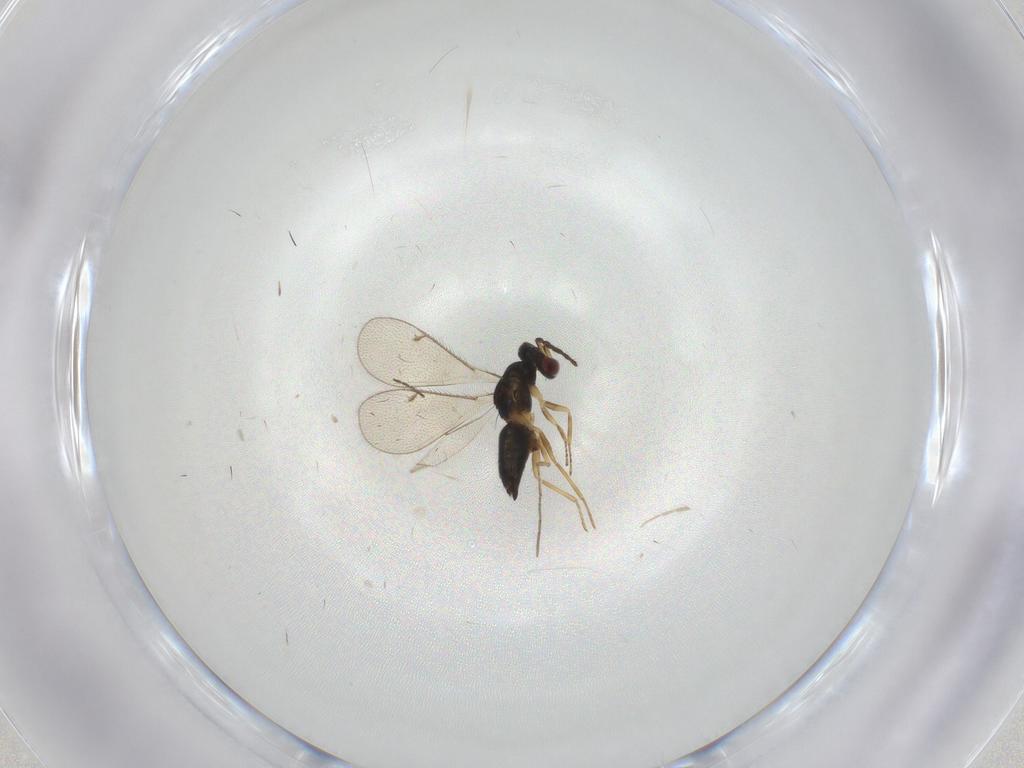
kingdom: Animalia
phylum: Arthropoda
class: Insecta
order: Hymenoptera
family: Eulophidae
